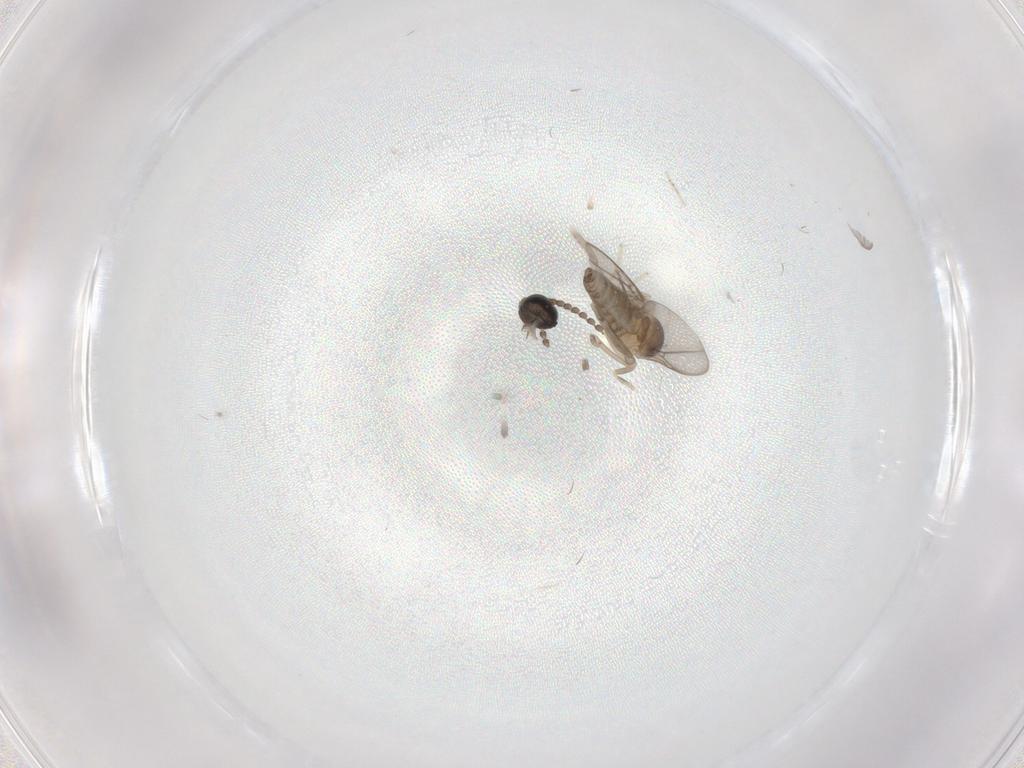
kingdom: Animalia
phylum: Arthropoda
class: Insecta
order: Diptera
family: Cecidomyiidae
